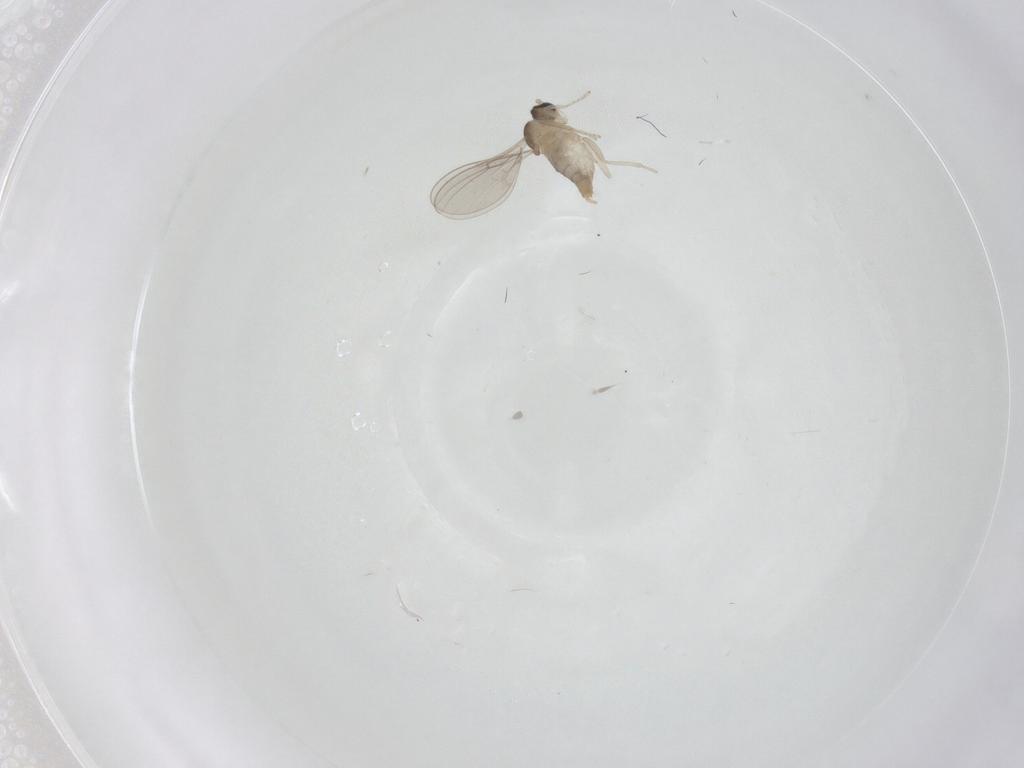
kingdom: Animalia
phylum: Arthropoda
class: Insecta
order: Diptera
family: Chironomidae
